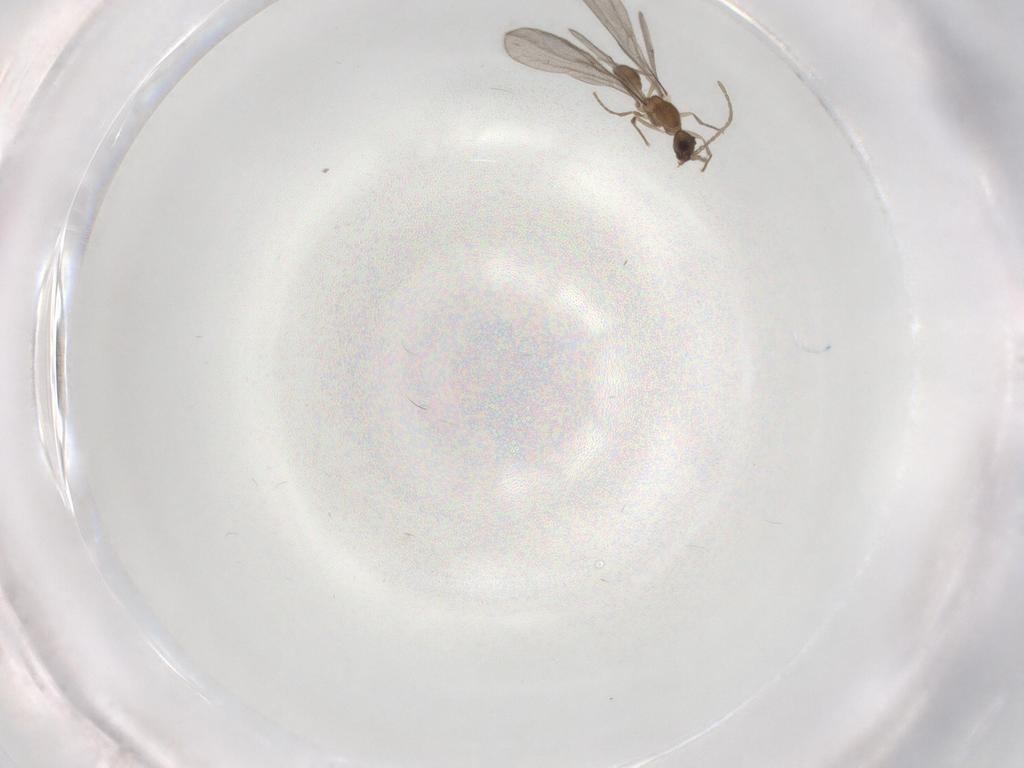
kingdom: Animalia
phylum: Arthropoda
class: Insecta
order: Hymenoptera
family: Formicidae
